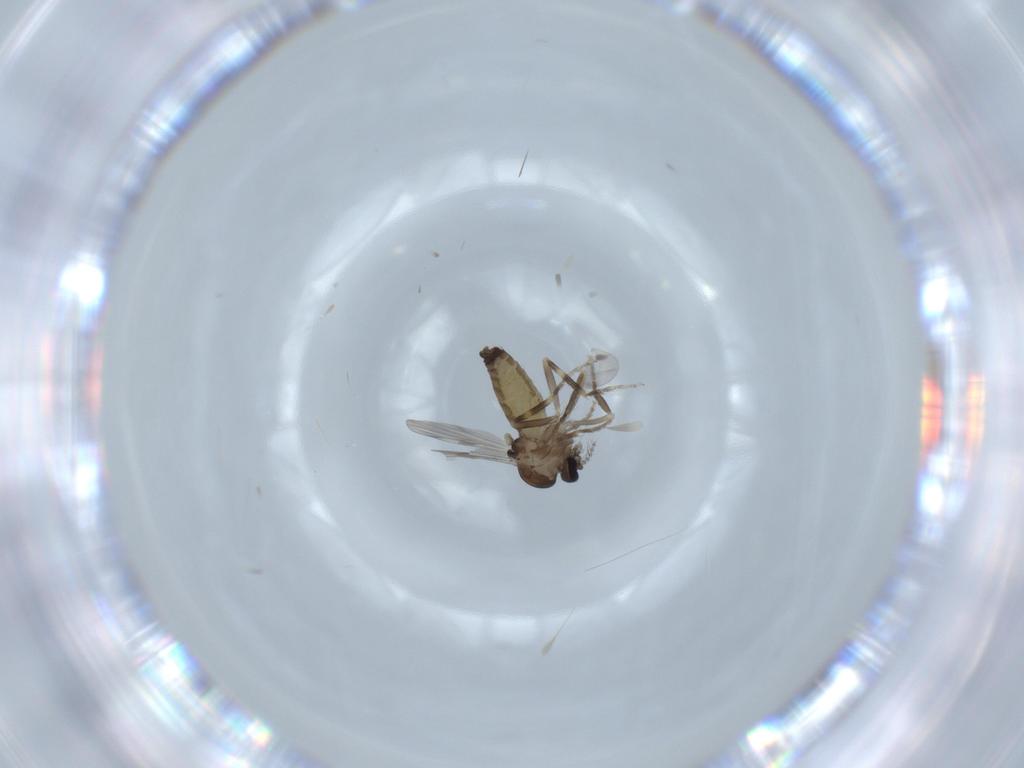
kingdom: Animalia
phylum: Arthropoda
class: Insecta
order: Diptera
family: Ceratopogonidae
